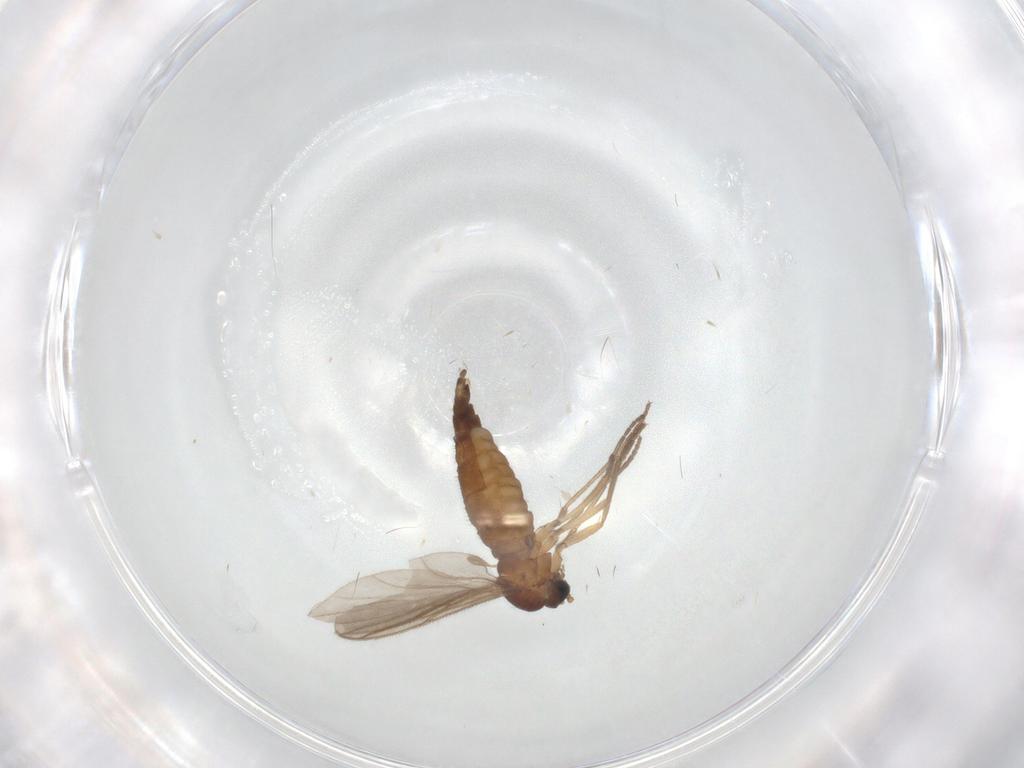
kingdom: Animalia
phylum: Arthropoda
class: Insecta
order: Diptera
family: Sciaridae
